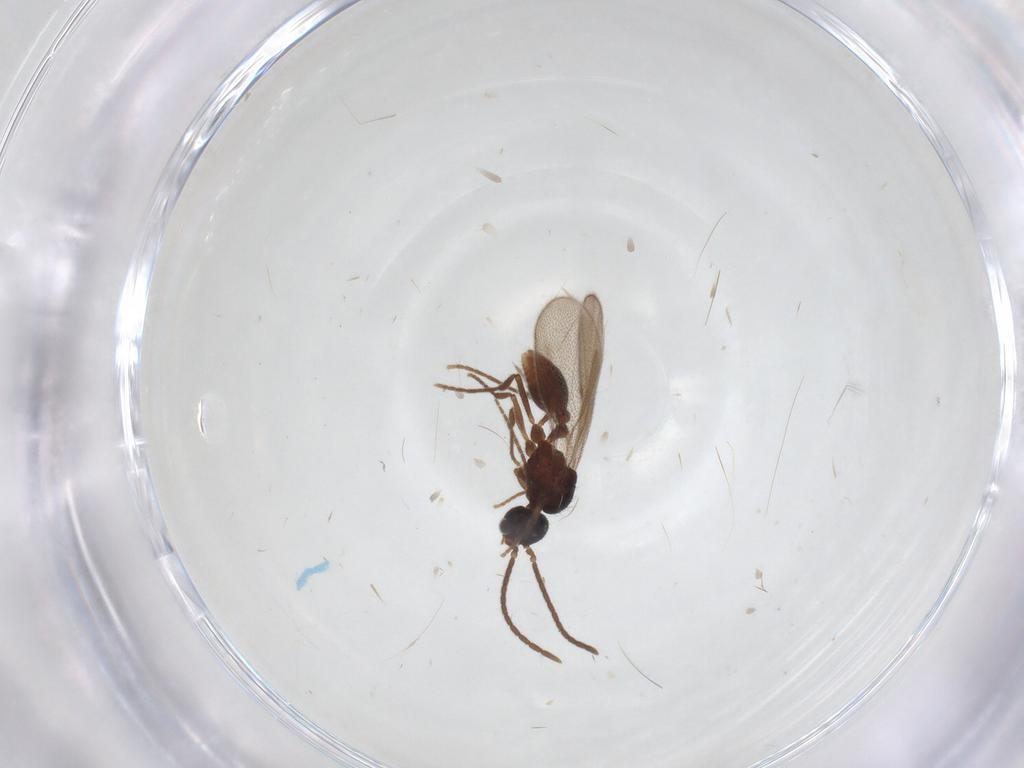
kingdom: Animalia
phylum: Arthropoda
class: Insecta
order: Hymenoptera
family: Formicidae
